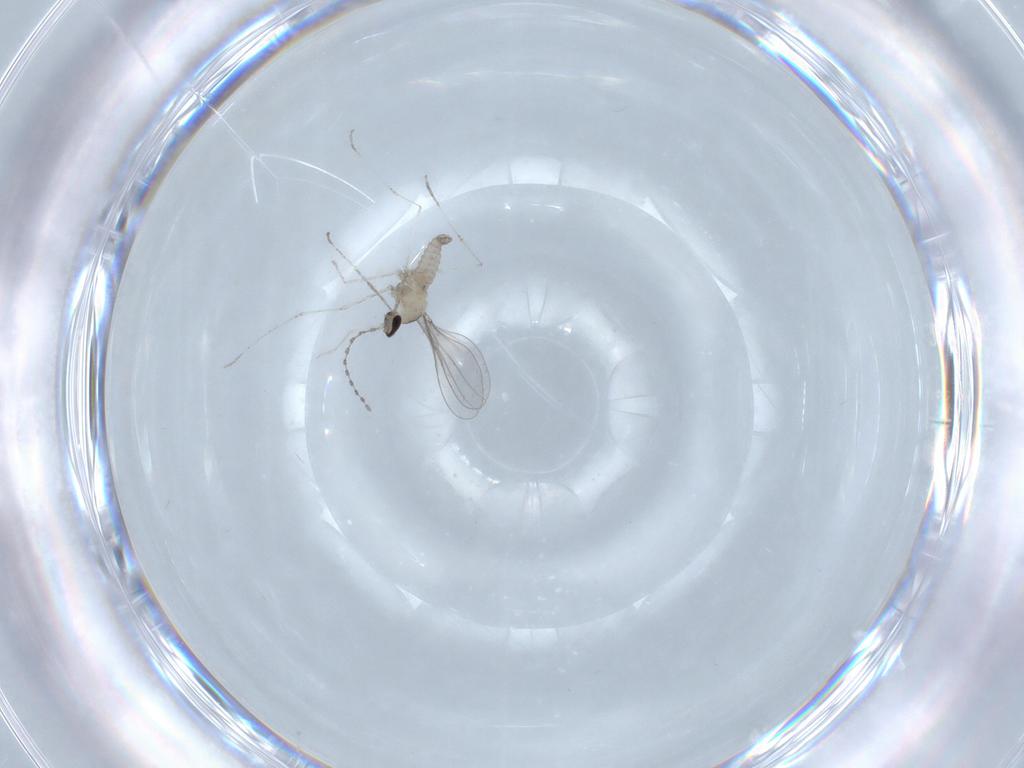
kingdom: Animalia
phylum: Arthropoda
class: Insecta
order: Diptera
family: Cecidomyiidae
